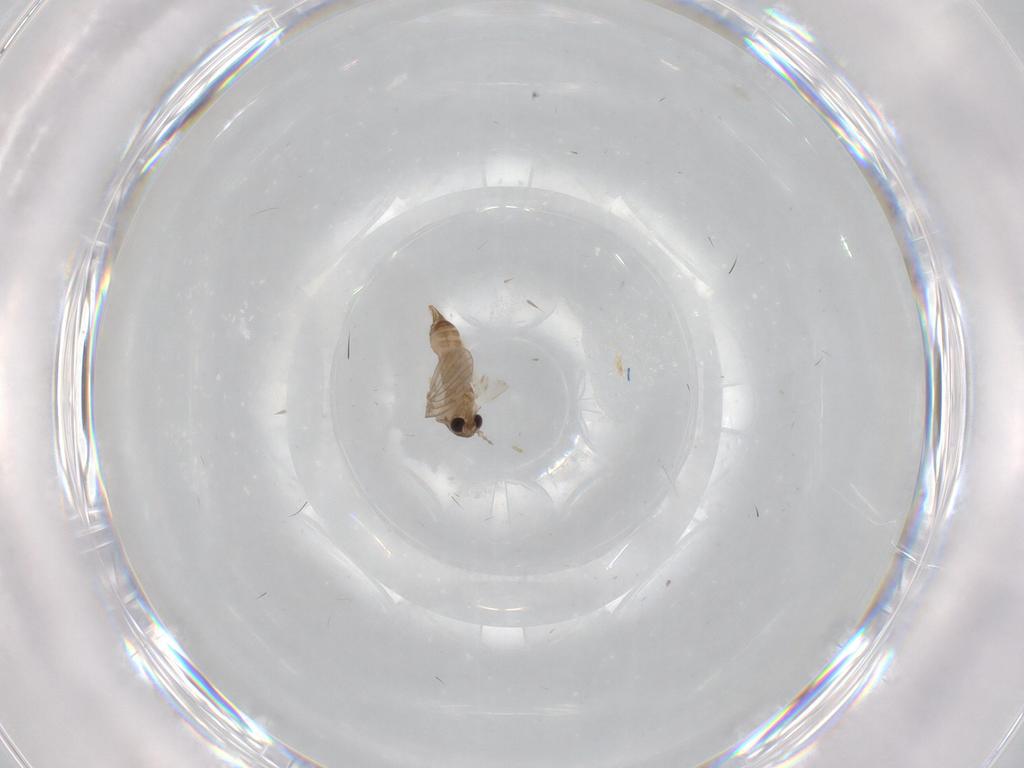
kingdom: Animalia
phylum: Arthropoda
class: Insecta
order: Diptera
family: Psychodidae
